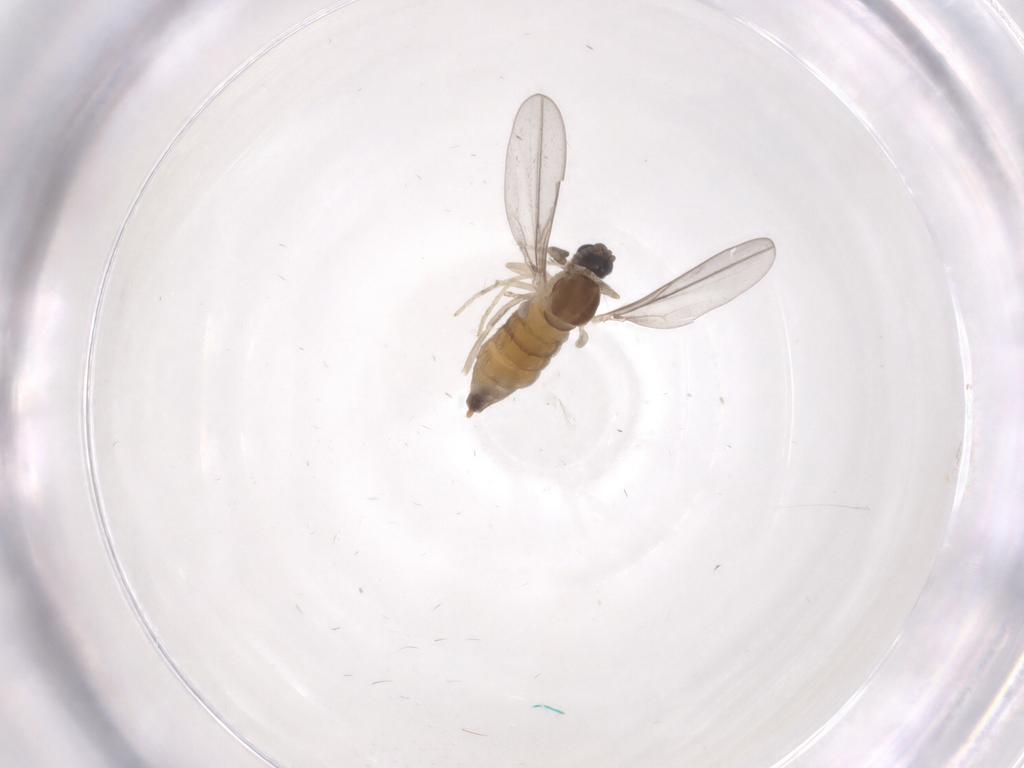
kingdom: Animalia
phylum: Arthropoda
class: Insecta
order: Diptera
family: Cecidomyiidae
